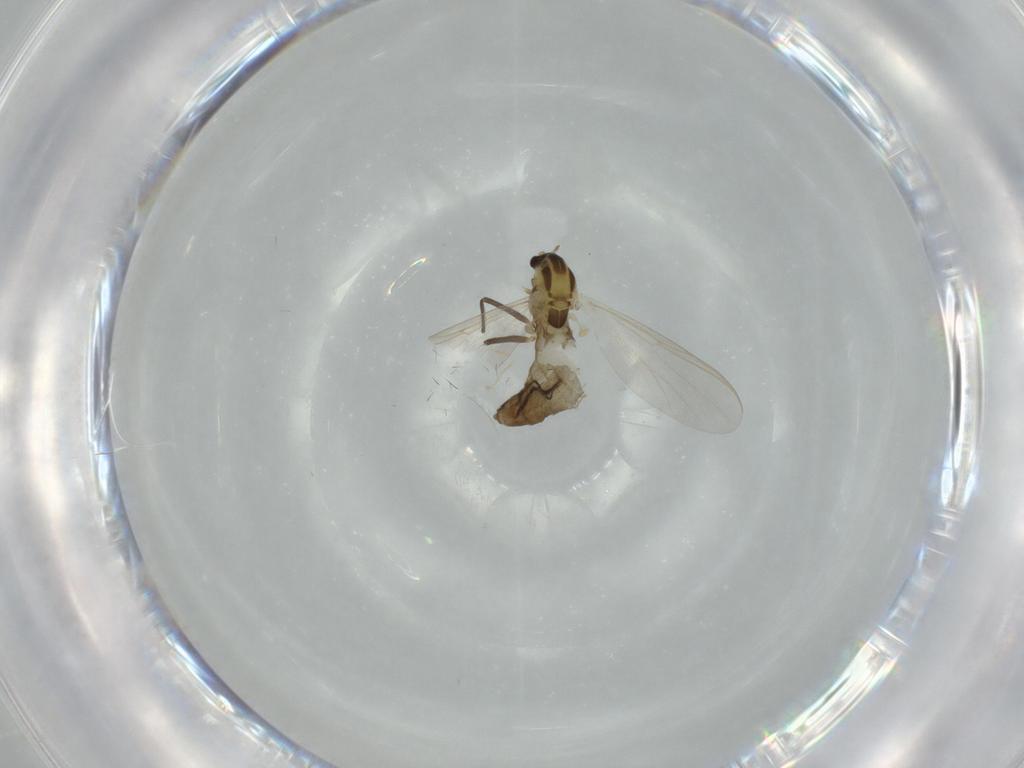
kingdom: Animalia
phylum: Arthropoda
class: Insecta
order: Diptera
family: Chironomidae
